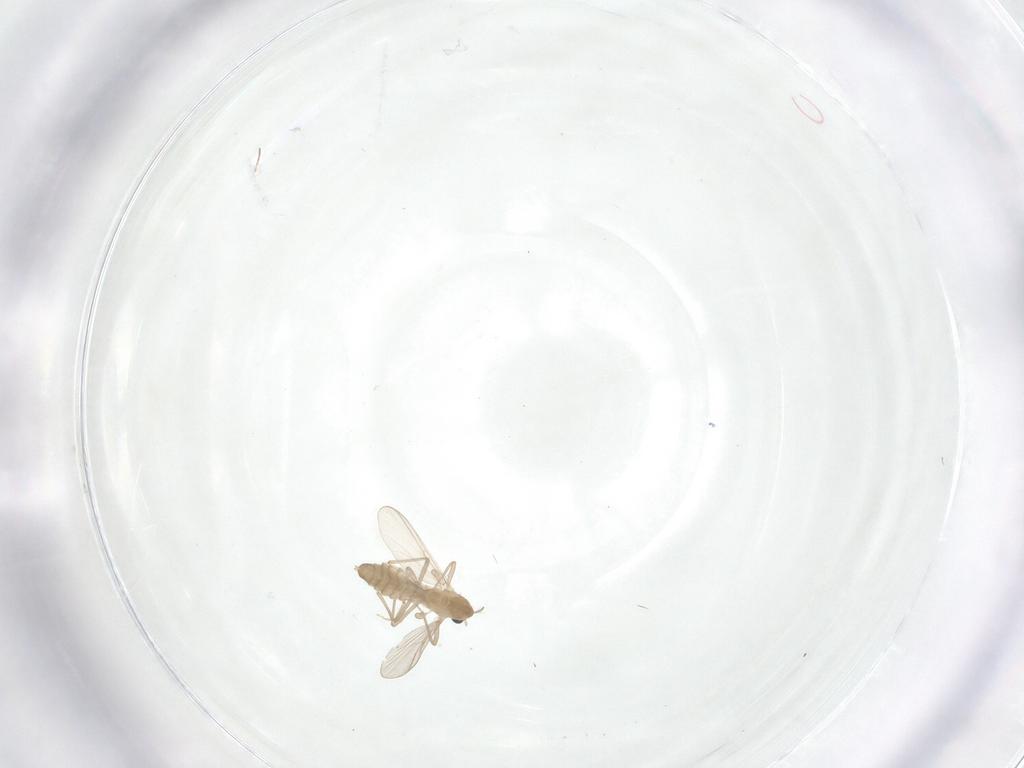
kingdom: Animalia
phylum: Arthropoda
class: Insecta
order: Diptera
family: Chironomidae
